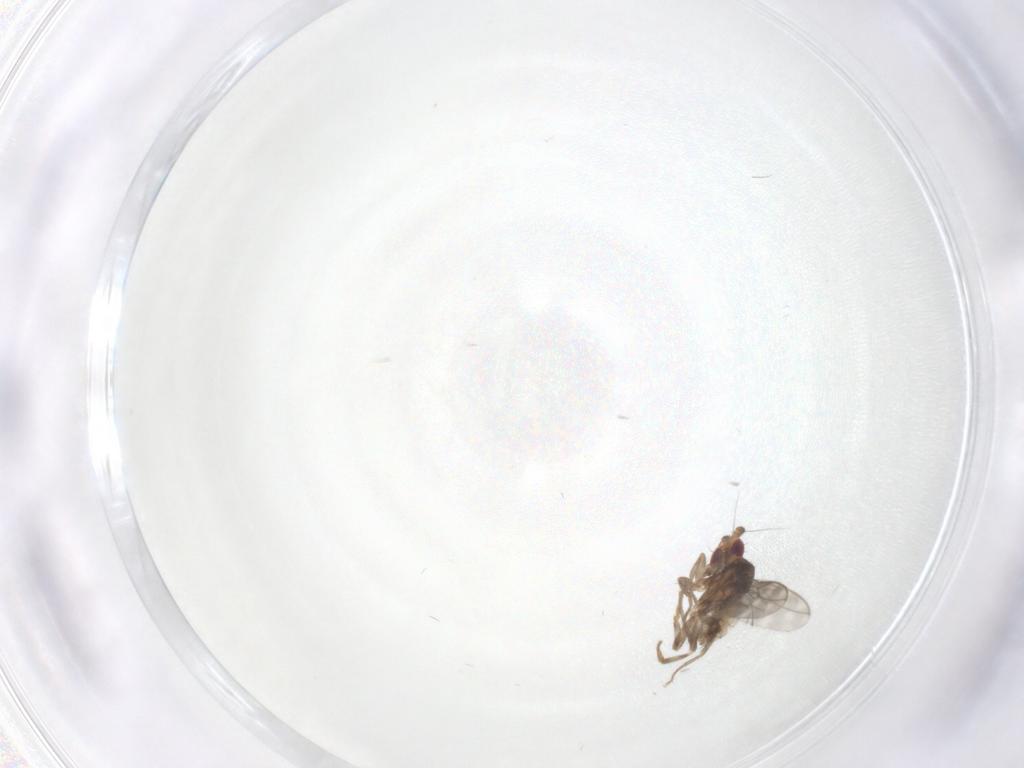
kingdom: Animalia
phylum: Arthropoda
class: Insecta
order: Diptera
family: Sphaeroceridae
